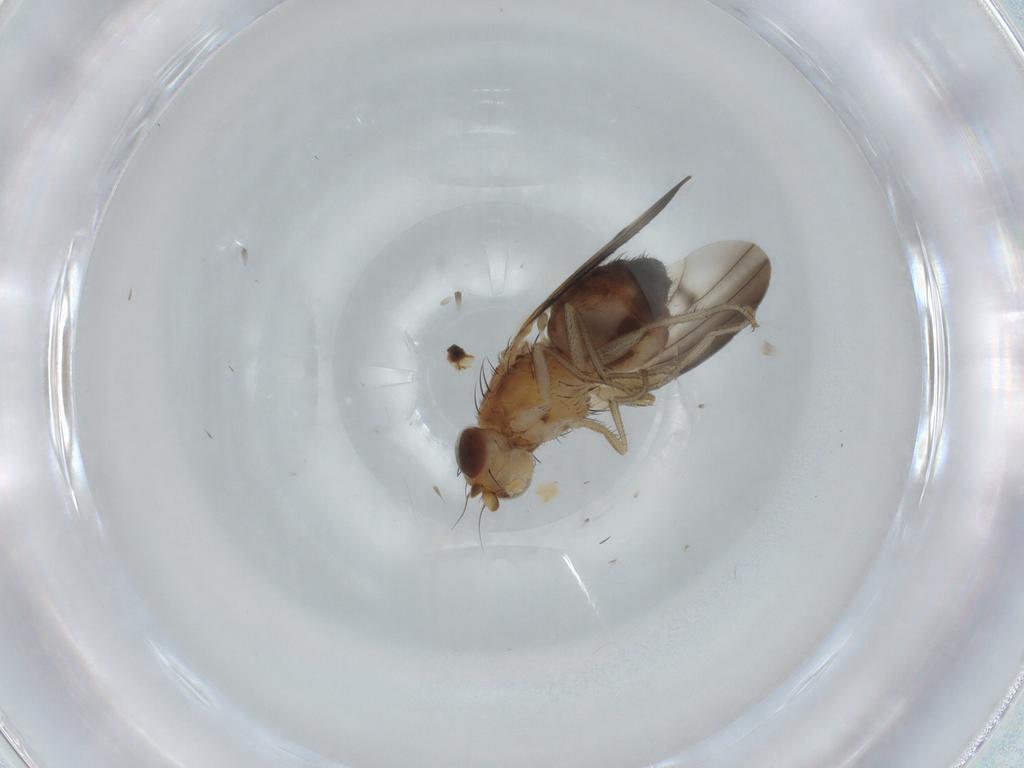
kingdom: Animalia
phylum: Arthropoda
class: Insecta
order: Diptera
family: Heleomyzidae
